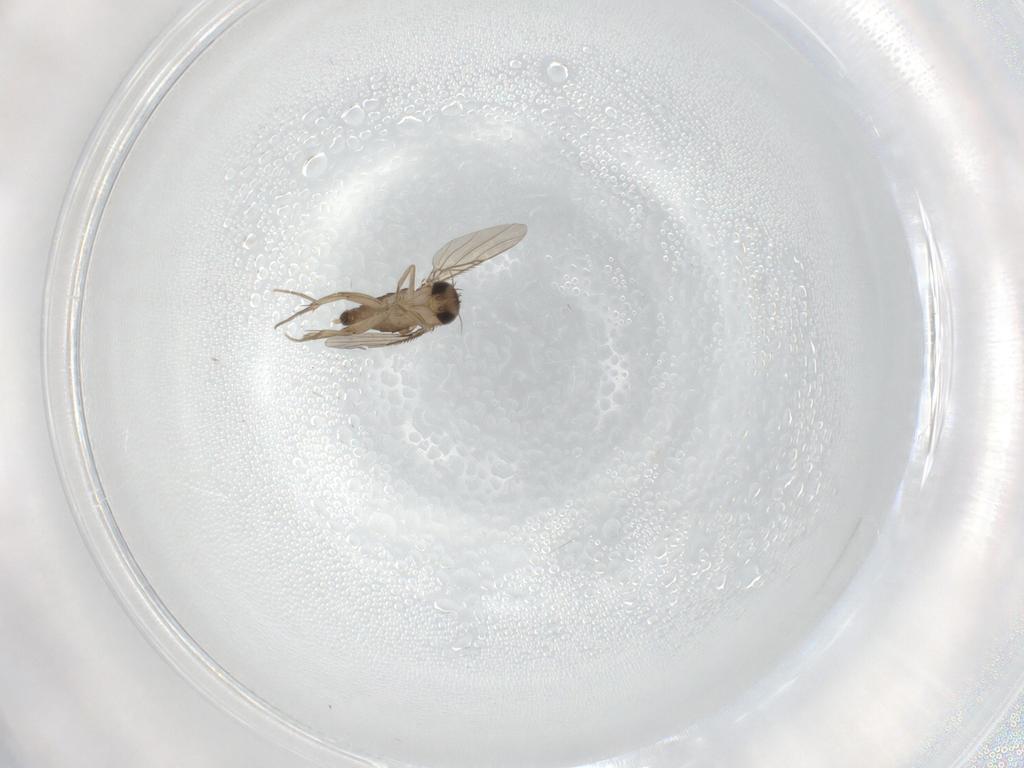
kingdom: Animalia
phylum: Arthropoda
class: Insecta
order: Diptera
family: Phoridae
